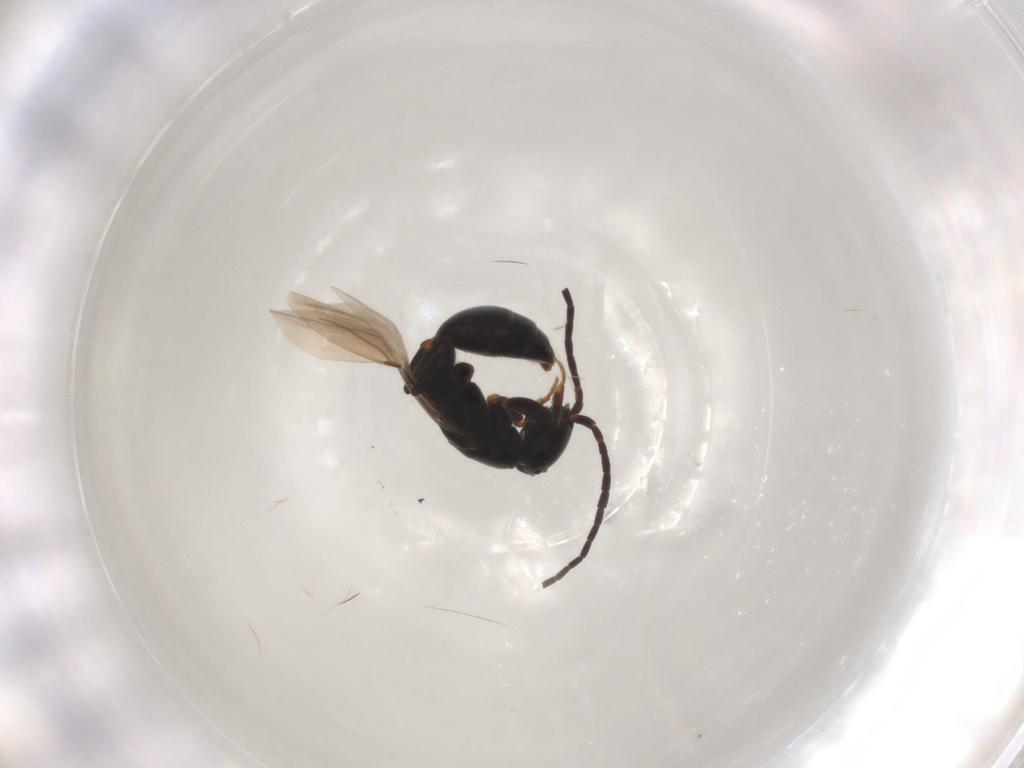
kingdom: Animalia
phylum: Arthropoda
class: Insecta
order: Hymenoptera
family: Bethylidae
